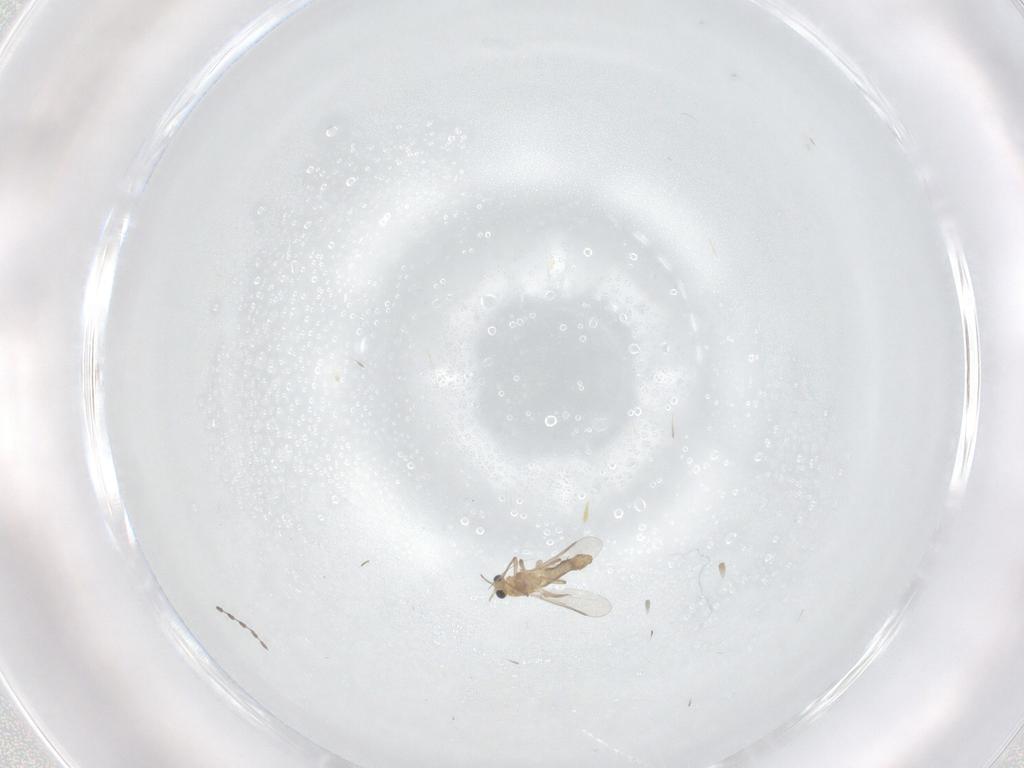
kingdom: Animalia
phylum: Arthropoda
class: Insecta
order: Diptera
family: Chironomidae
